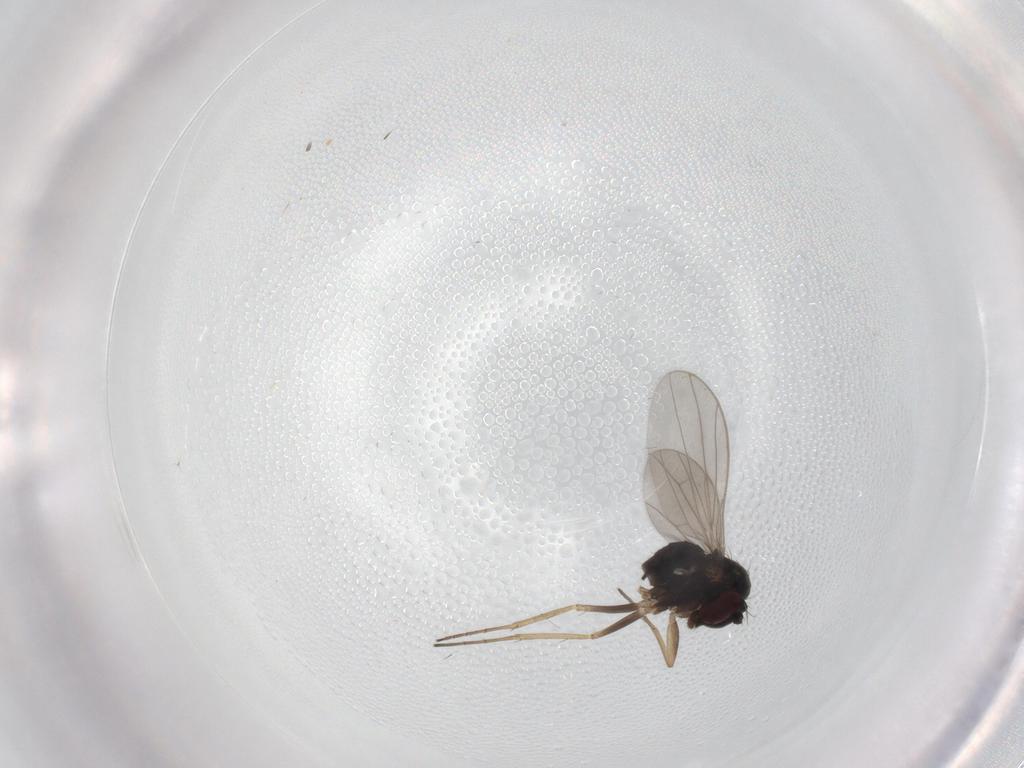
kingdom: Animalia
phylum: Arthropoda
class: Insecta
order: Diptera
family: Dolichopodidae
